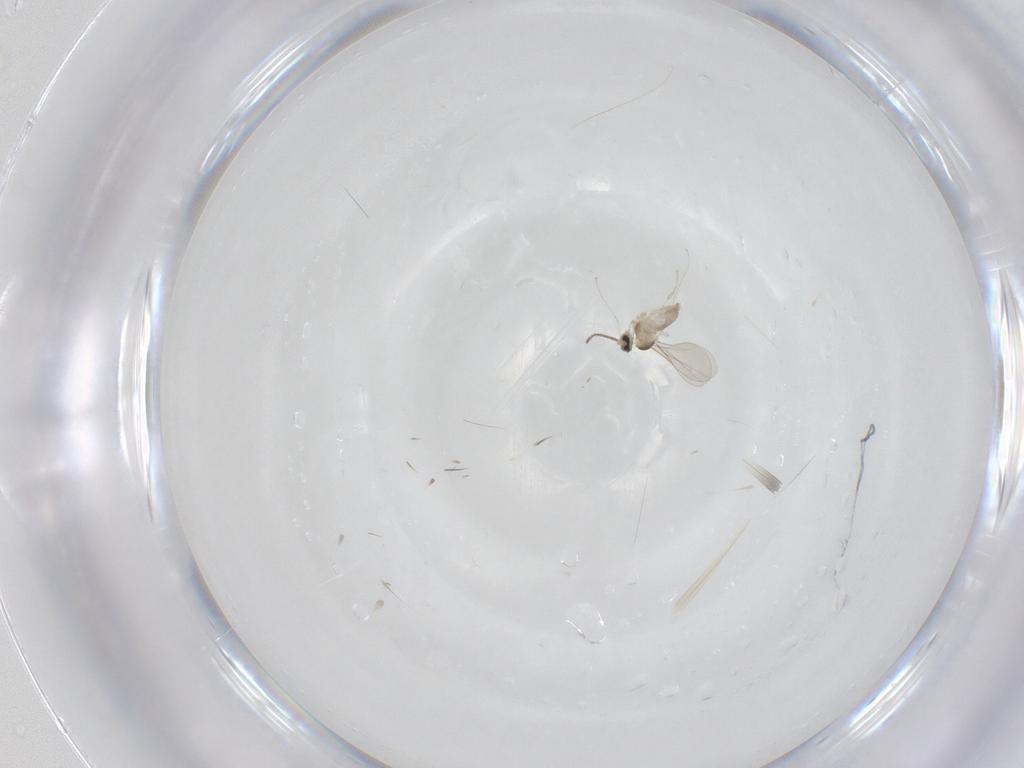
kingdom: Animalia
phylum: Arthropoda
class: Insecta
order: Diptera
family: Cecidomyiidae
